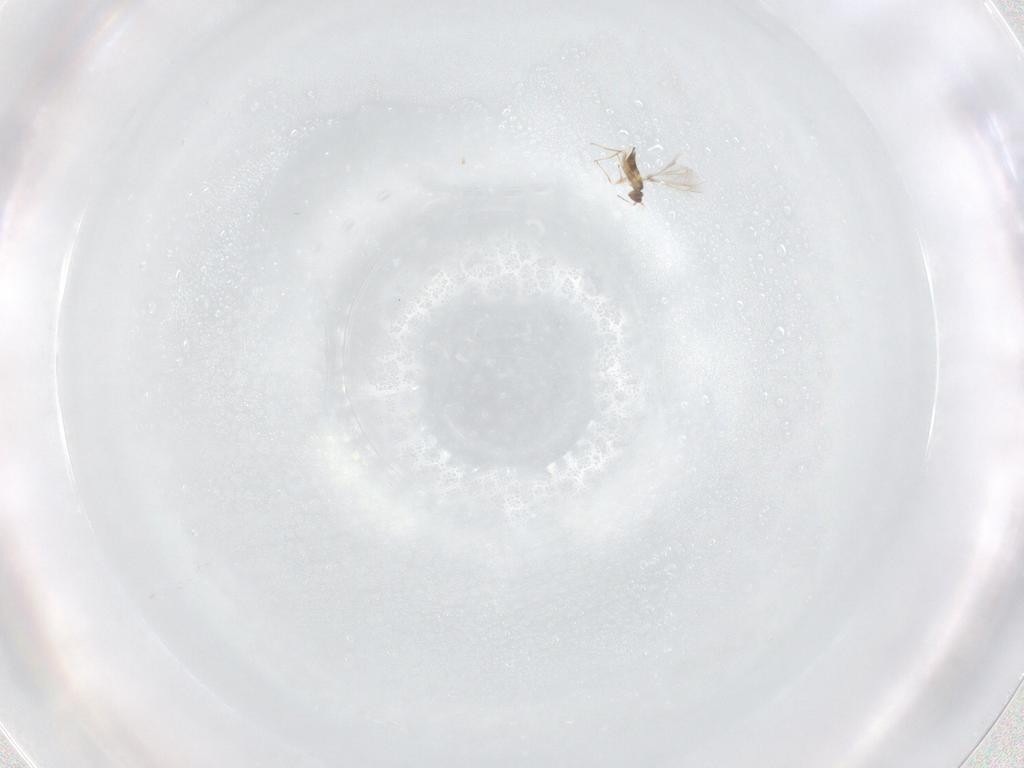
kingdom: Animalia
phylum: Arthropoda
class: Insecta
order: Hymenoptera
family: Mymaridae
